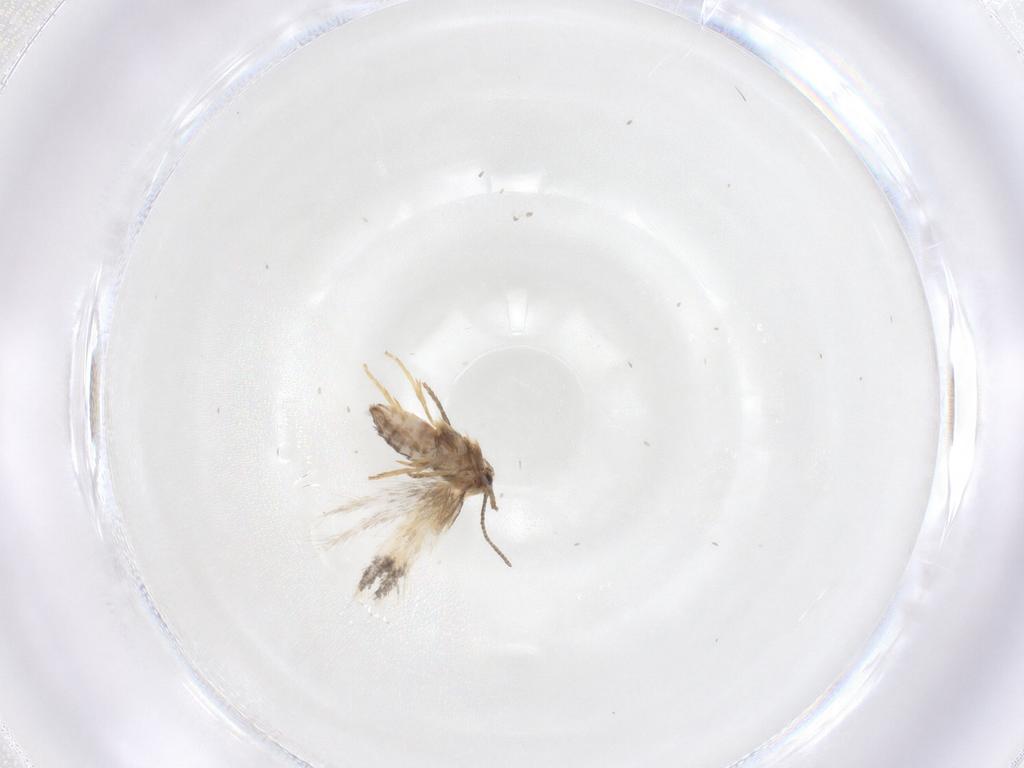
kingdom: Animalia
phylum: Arthropoda
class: Insecta
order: Lepidoptera
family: Nepticulidae
